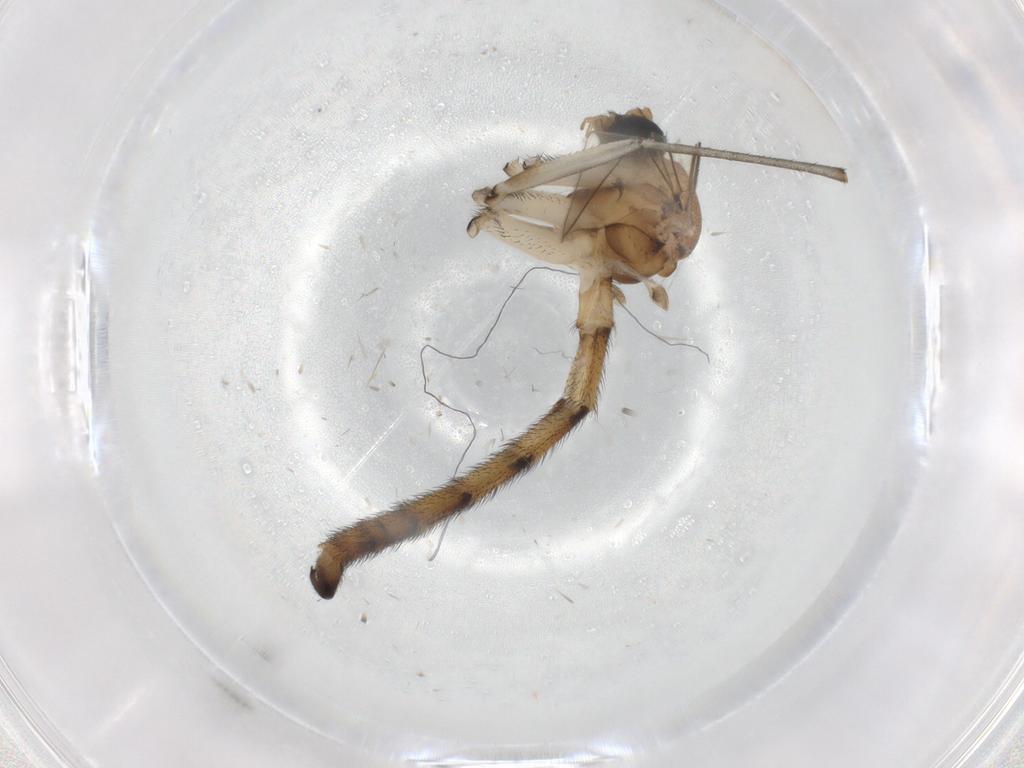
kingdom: Animalia
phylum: Arthropoda
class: Insecta
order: Diptera
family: Muscidae
